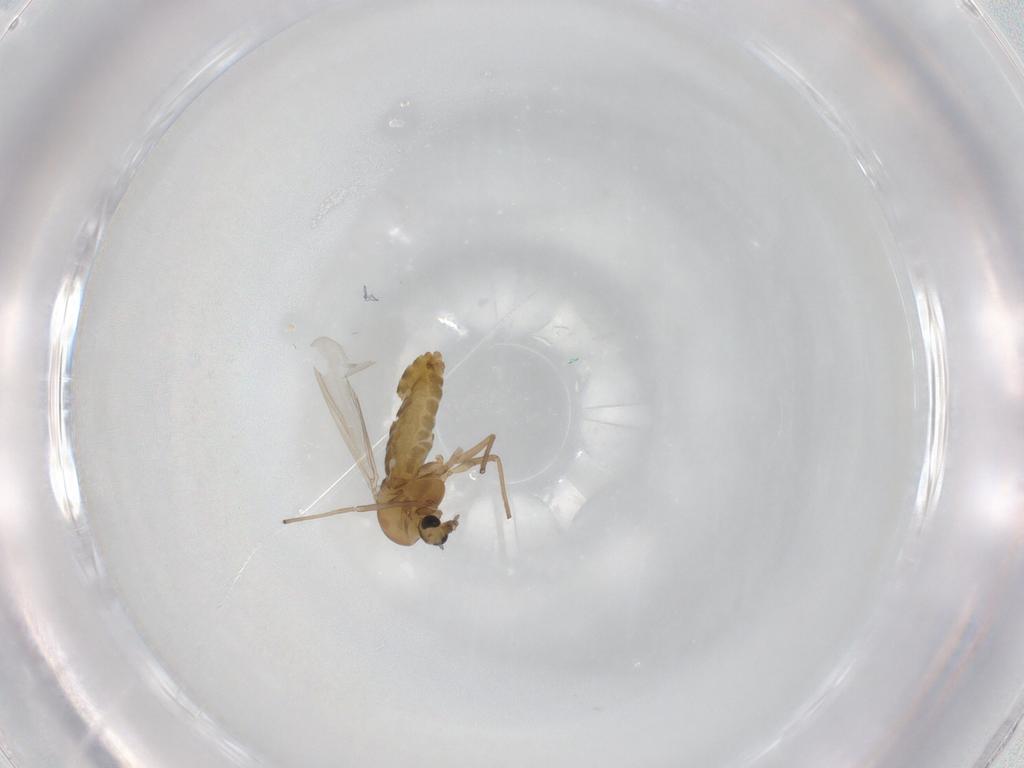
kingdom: Animalia
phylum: Arthropoda
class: Insecta
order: Diptera
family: Chironomidae
